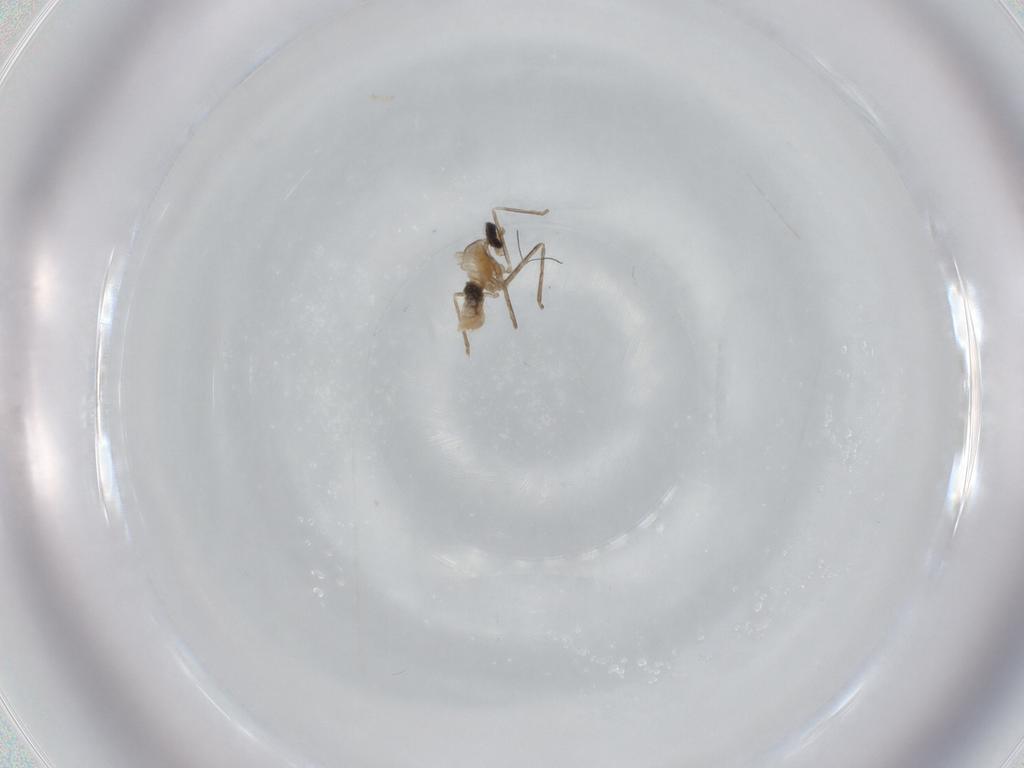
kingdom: Animalia
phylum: Arthropoda
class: Insecta
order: Diptera
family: Cecidomyiidae
